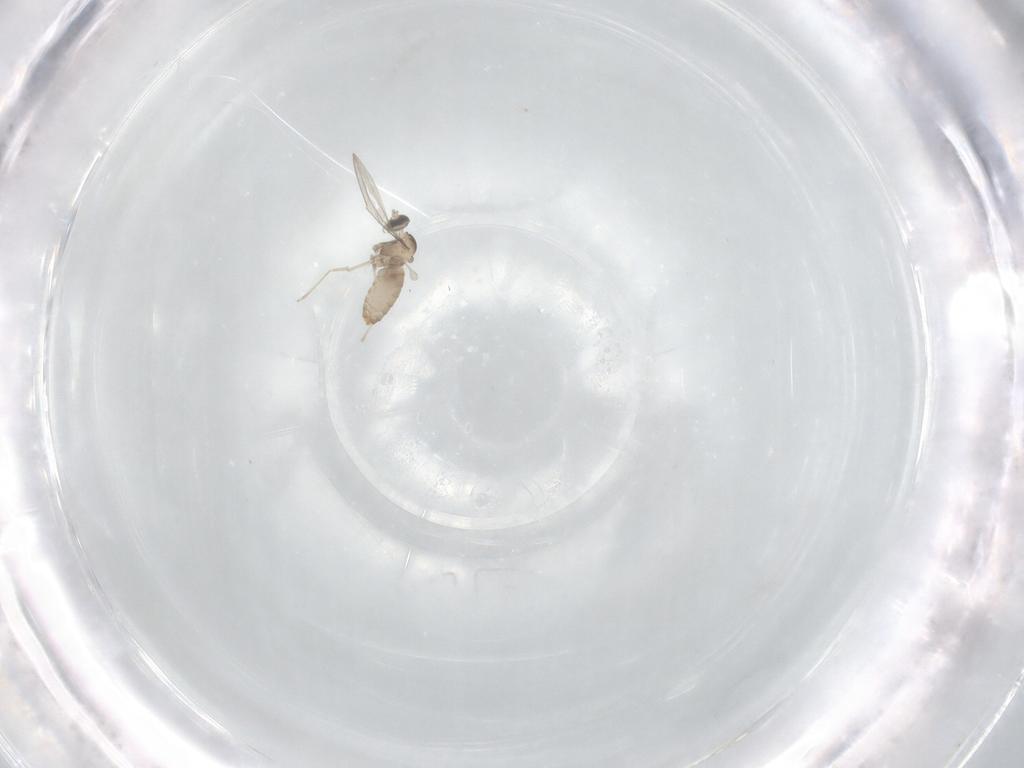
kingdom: Animalia
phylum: Arthropoda
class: Insecta
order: Diptera
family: Cecidomyiidae
